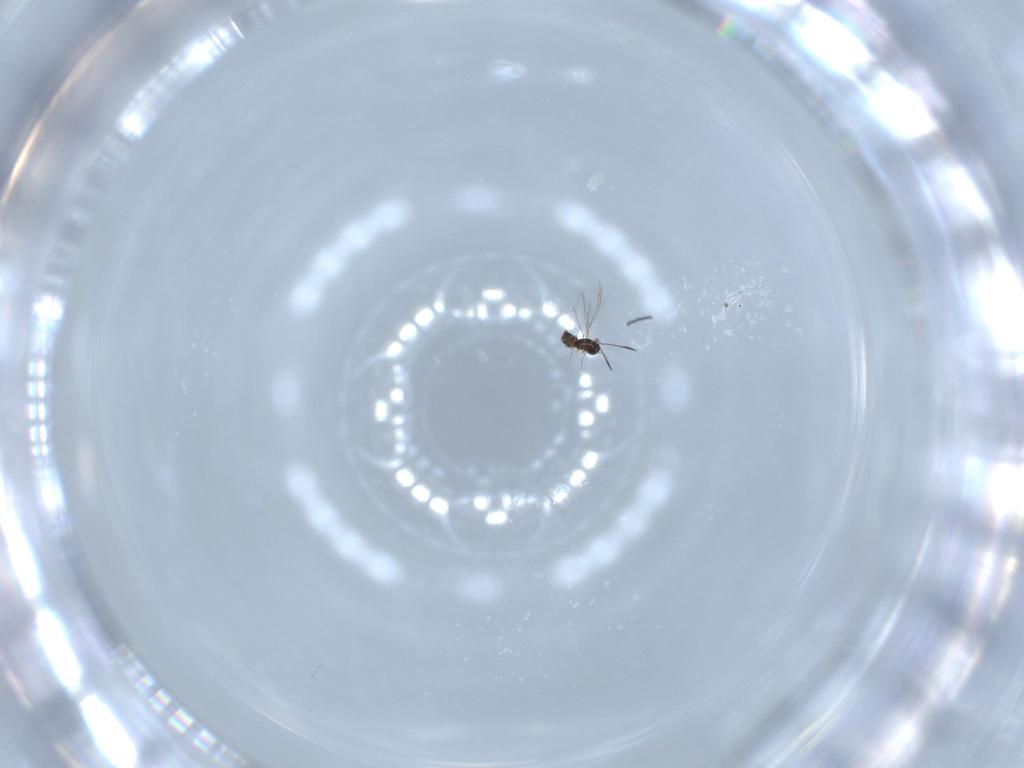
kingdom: Animalia
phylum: Arthropoda
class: Insecta
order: Hymenoptera
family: Mymaridae
